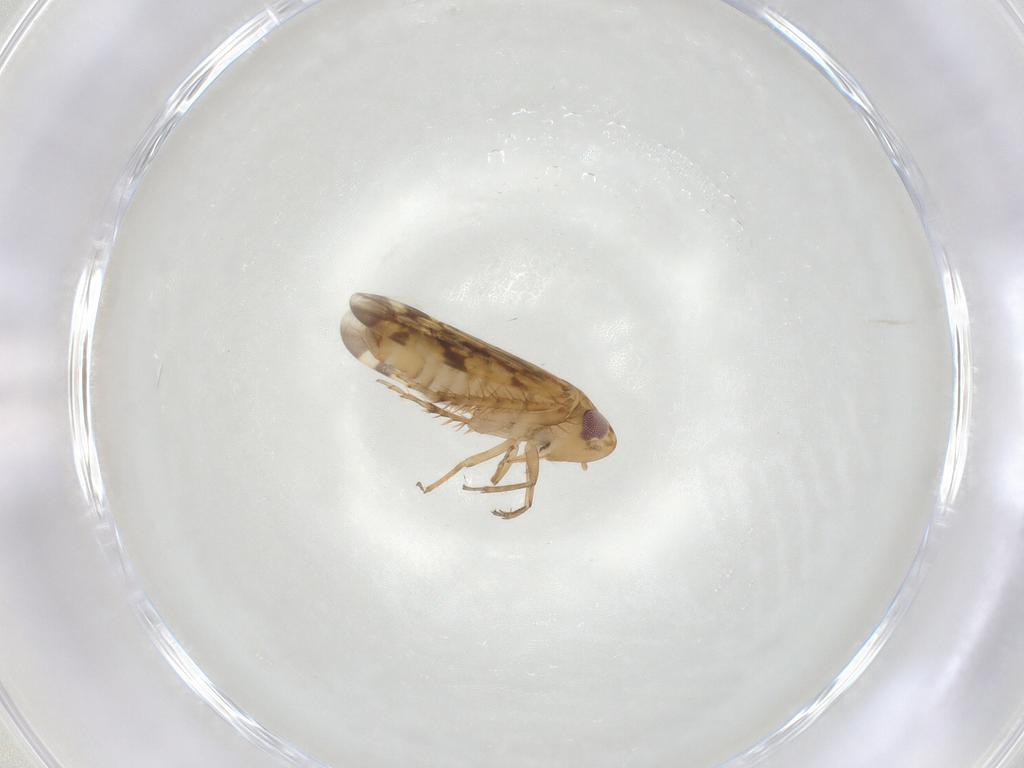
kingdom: Animalia
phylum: Arthropoda
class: Insecta
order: Hemiptera
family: Cicadellidae
